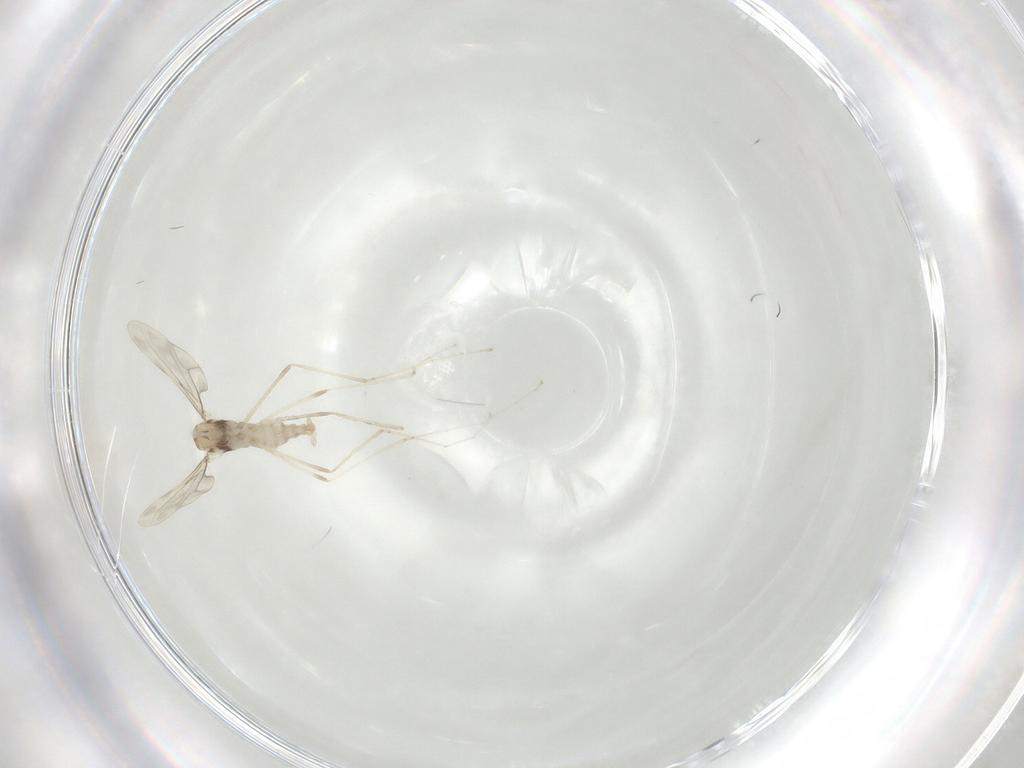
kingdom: Animalia
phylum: Arthropoda
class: Insecta
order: Diptera
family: Cecidomyiidae
